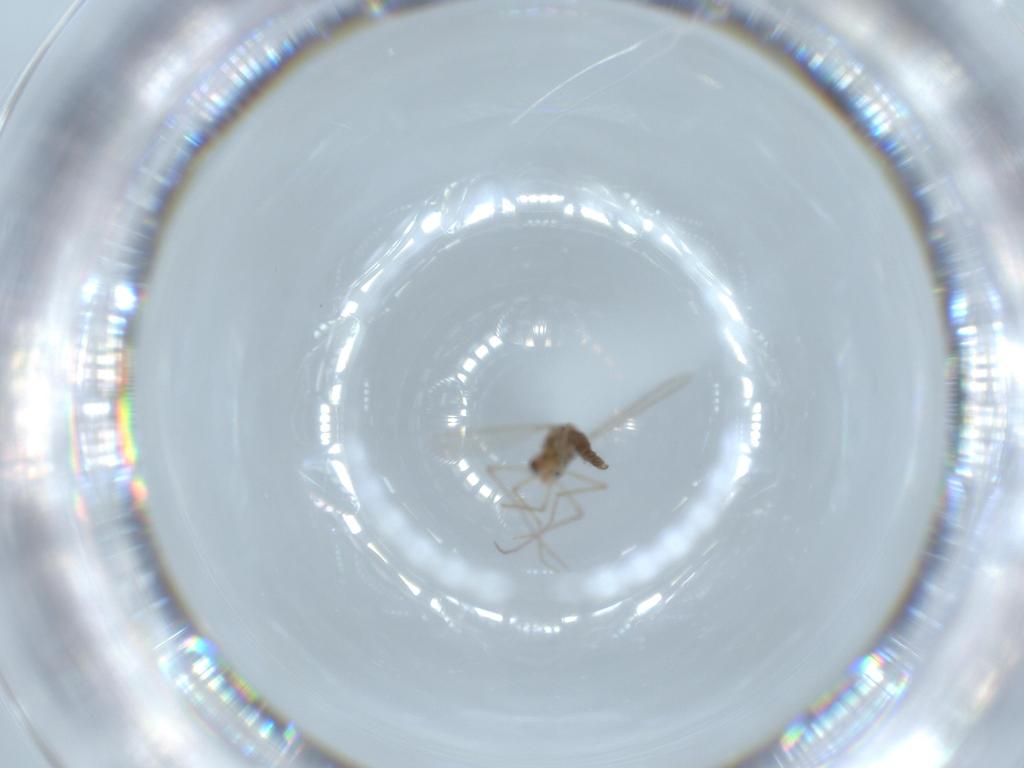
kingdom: Animalia
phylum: Arthropoda
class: Insecta
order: Diptera
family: Chironomidae
